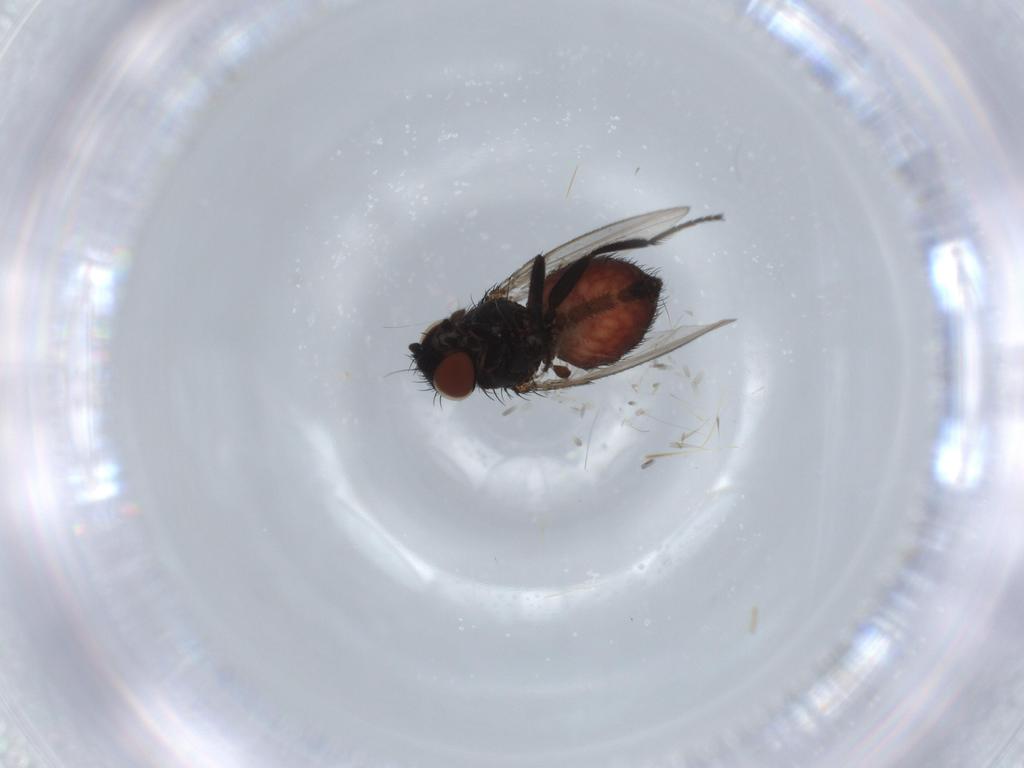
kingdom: Animalia
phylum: Arthropoda
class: Insecta
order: Diptera
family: Milichiidae
